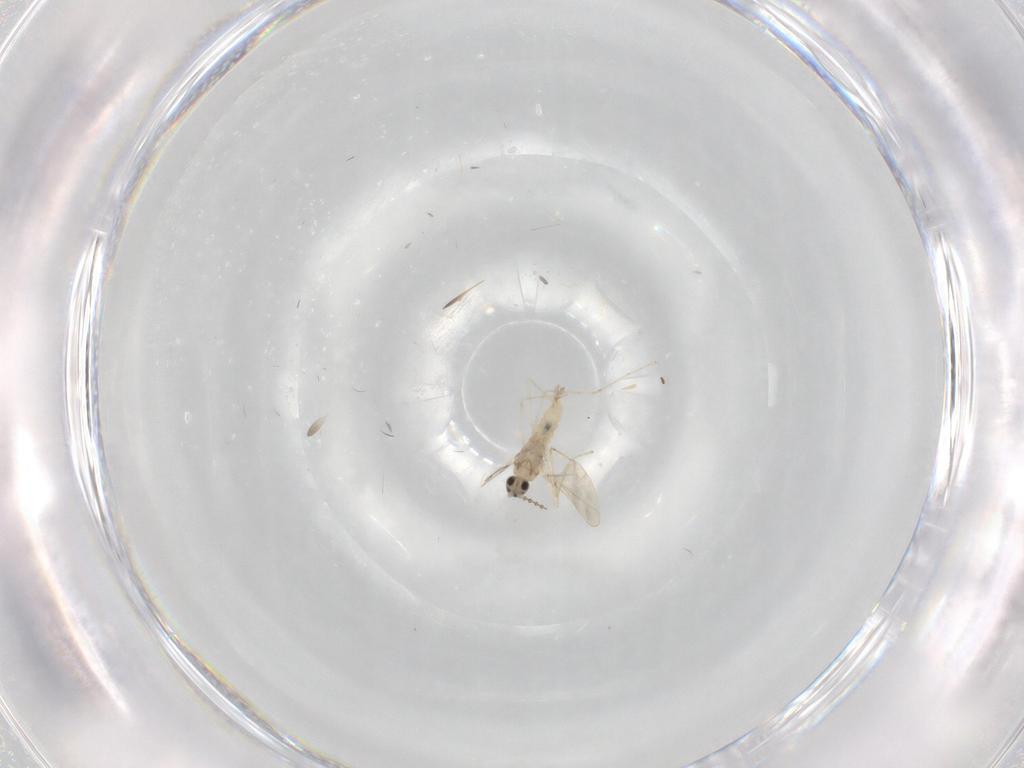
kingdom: Animalia
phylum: Arthropoda
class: Insecta
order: Diptera
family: Cecidomyiidae
